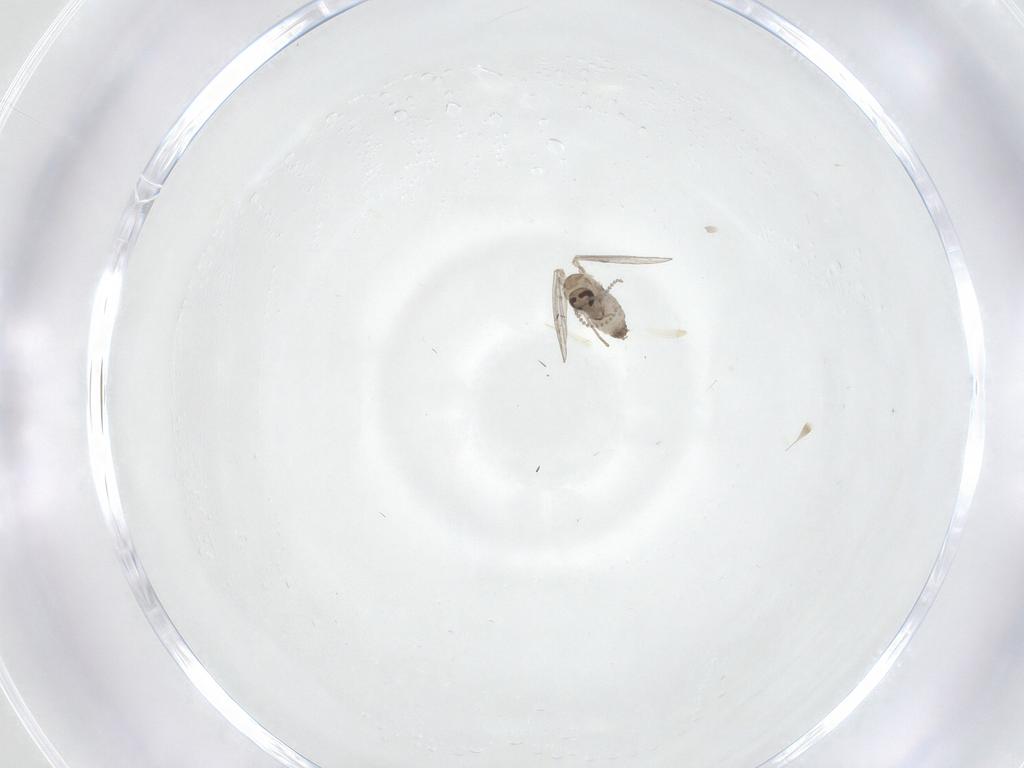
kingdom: Animalia
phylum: Arthropoda
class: Insecta
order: Diptera
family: Psychodidae
